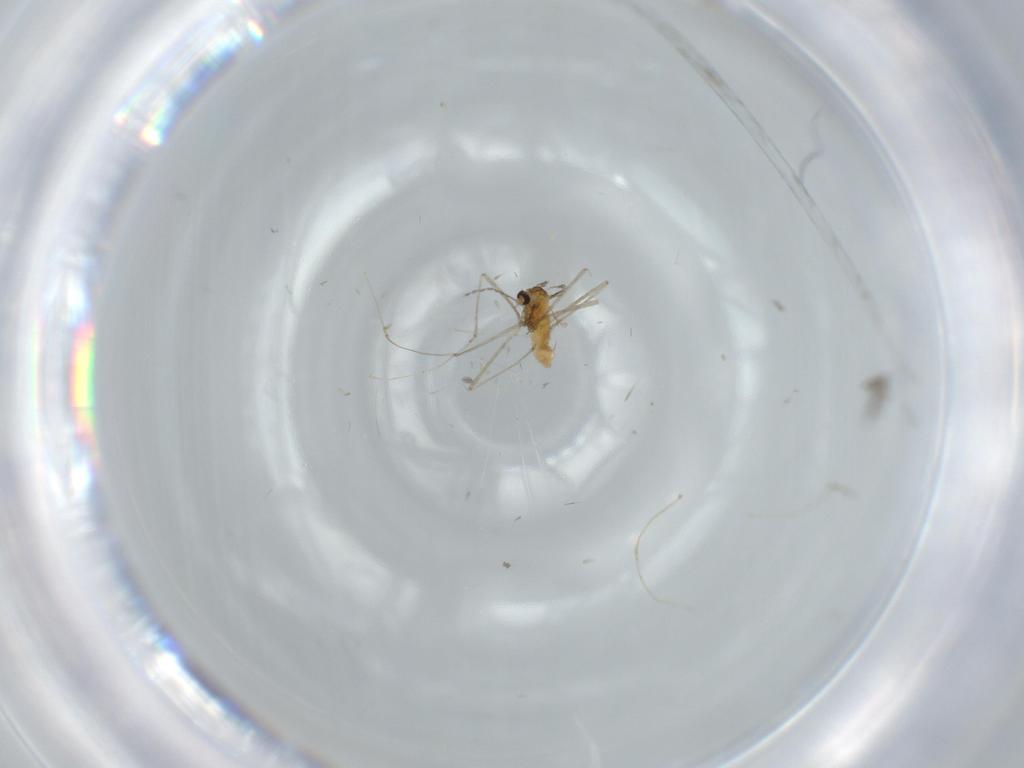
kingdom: Animalia
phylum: Arthropoda
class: Insecta
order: Diptera
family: Cecidomyiidae
